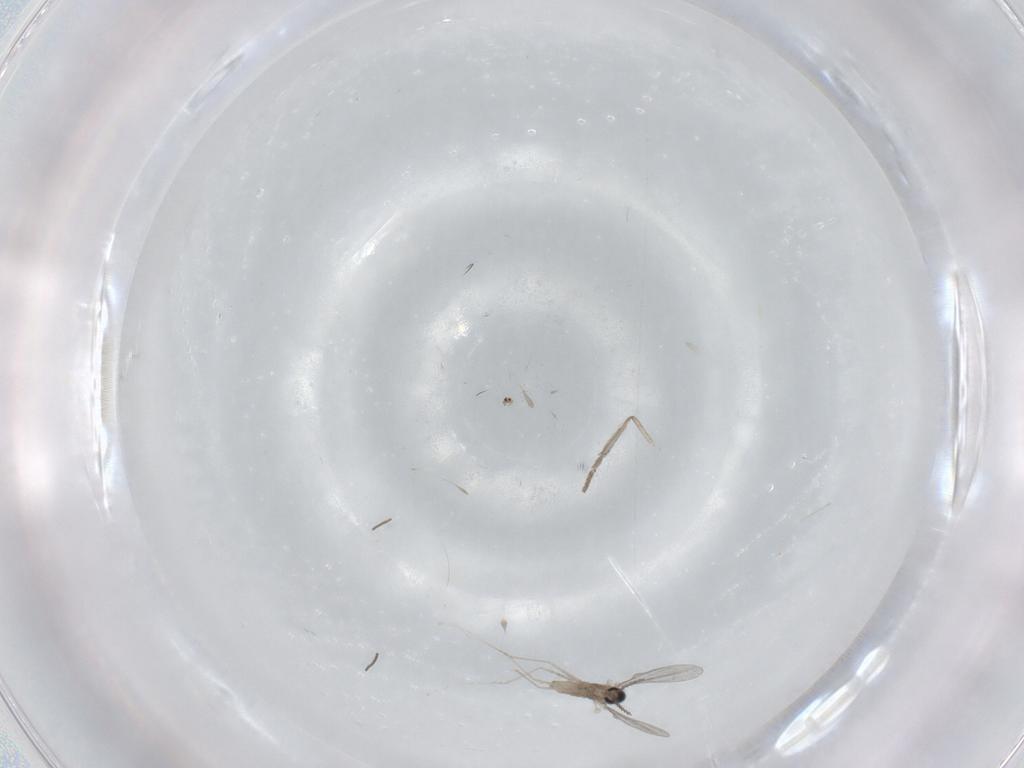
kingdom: Animalia
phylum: Arthropoda
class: Insecta
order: Diptera
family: Psychodidae
